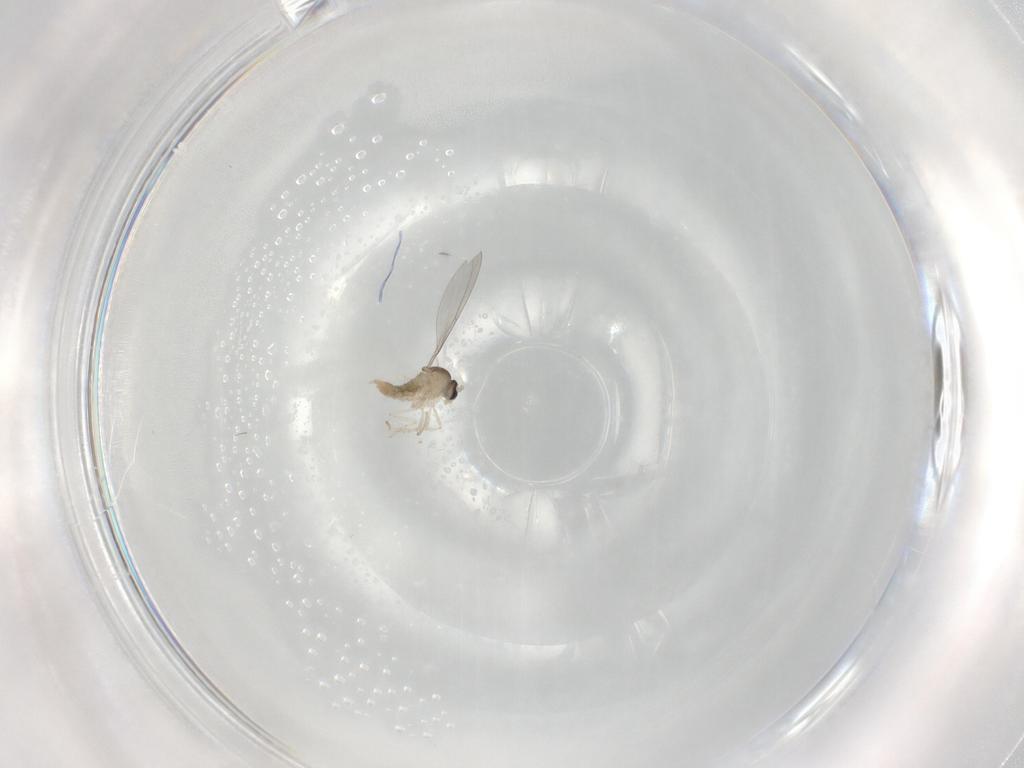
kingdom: Animalia
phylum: Arthropoda
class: Insecta
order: Diptera
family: Cecidomyiidae
